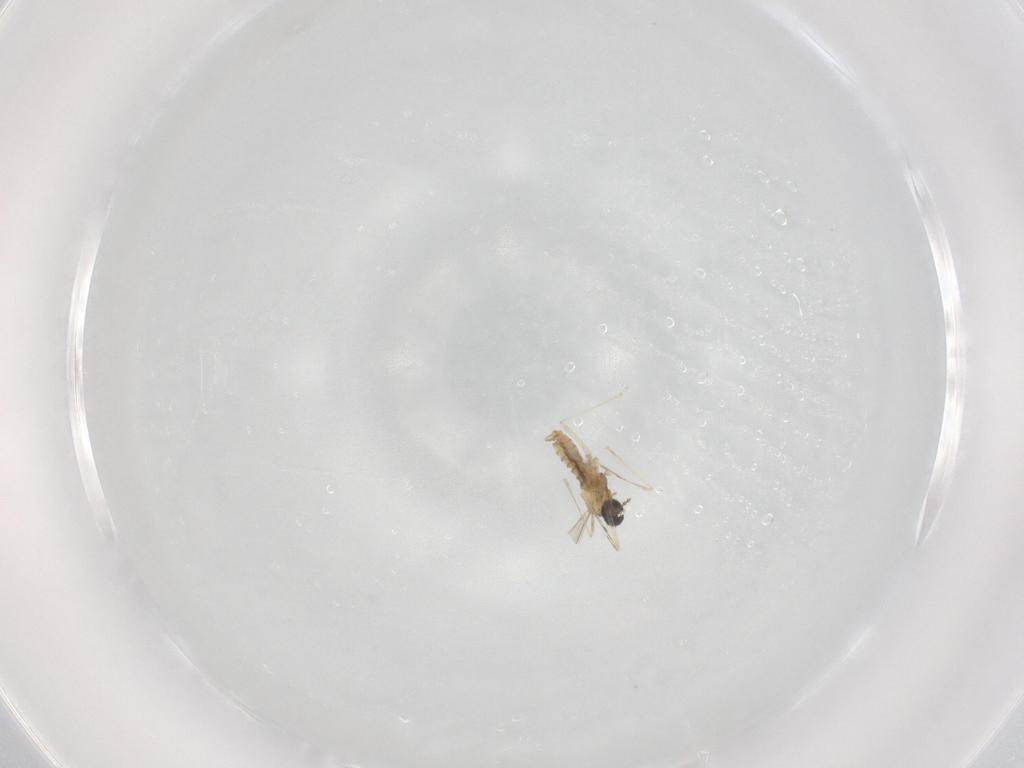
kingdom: Animalia
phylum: Arthropoda
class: Insecta
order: Diptera
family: Cecidomyiidae
